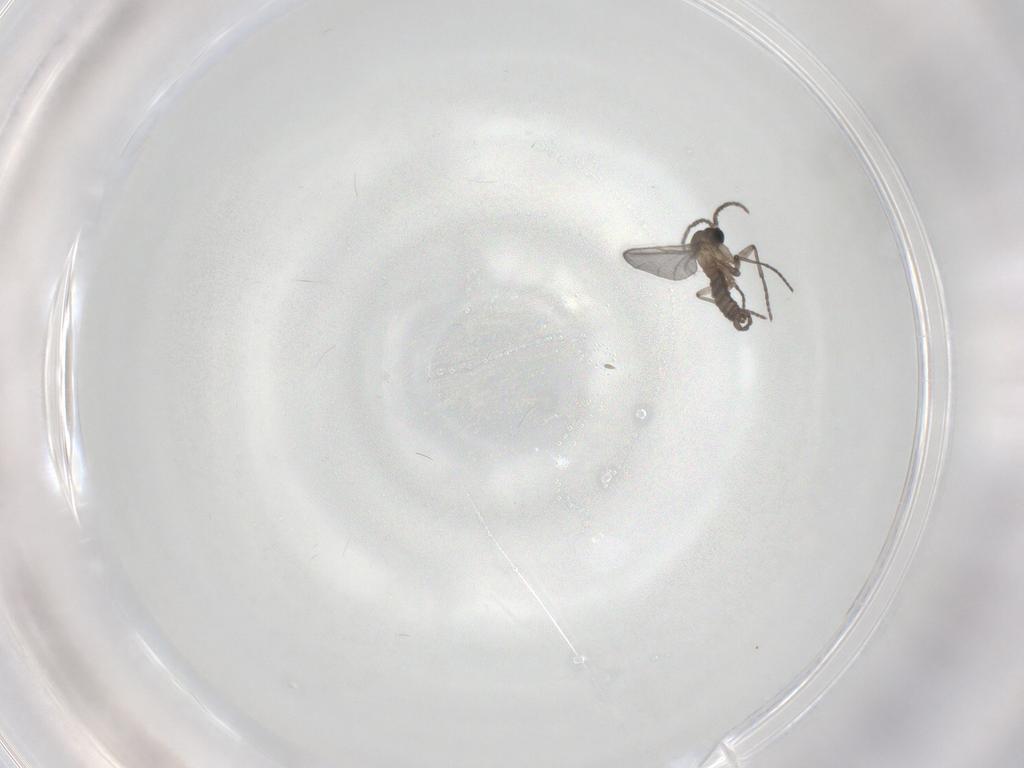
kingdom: Animalia
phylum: Arthropoda
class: Insecta
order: Diptera
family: Sciaridae
